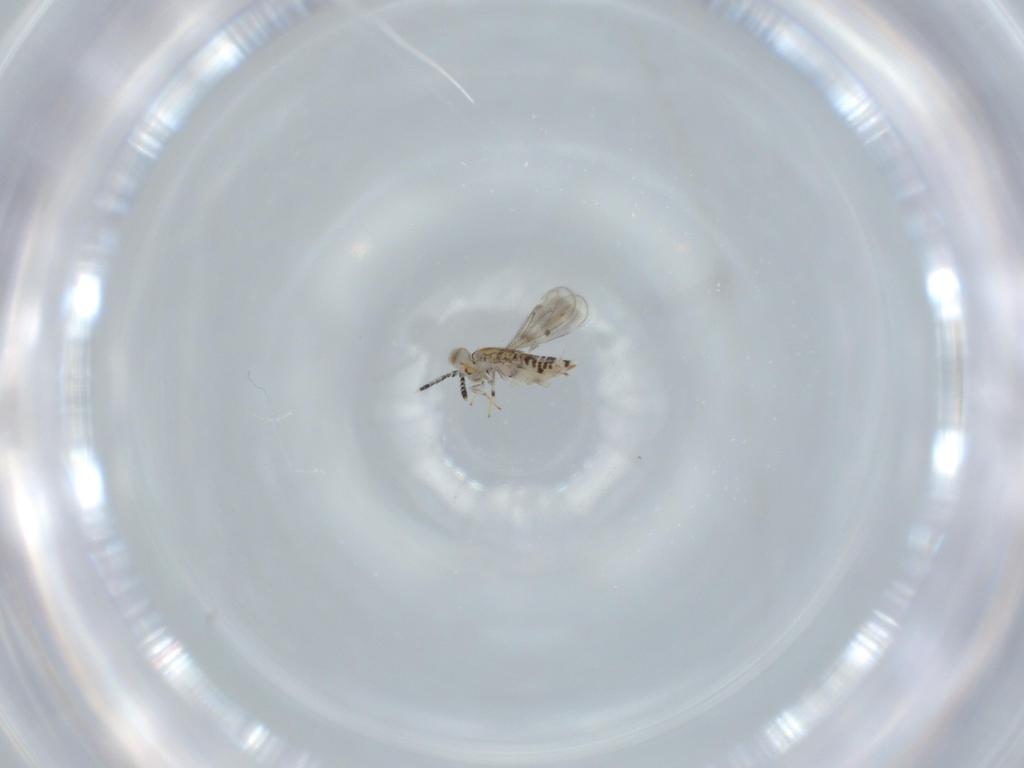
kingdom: Animalia
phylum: Arthropoda
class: Insecta
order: Hymenoptera
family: Aphelinidae
